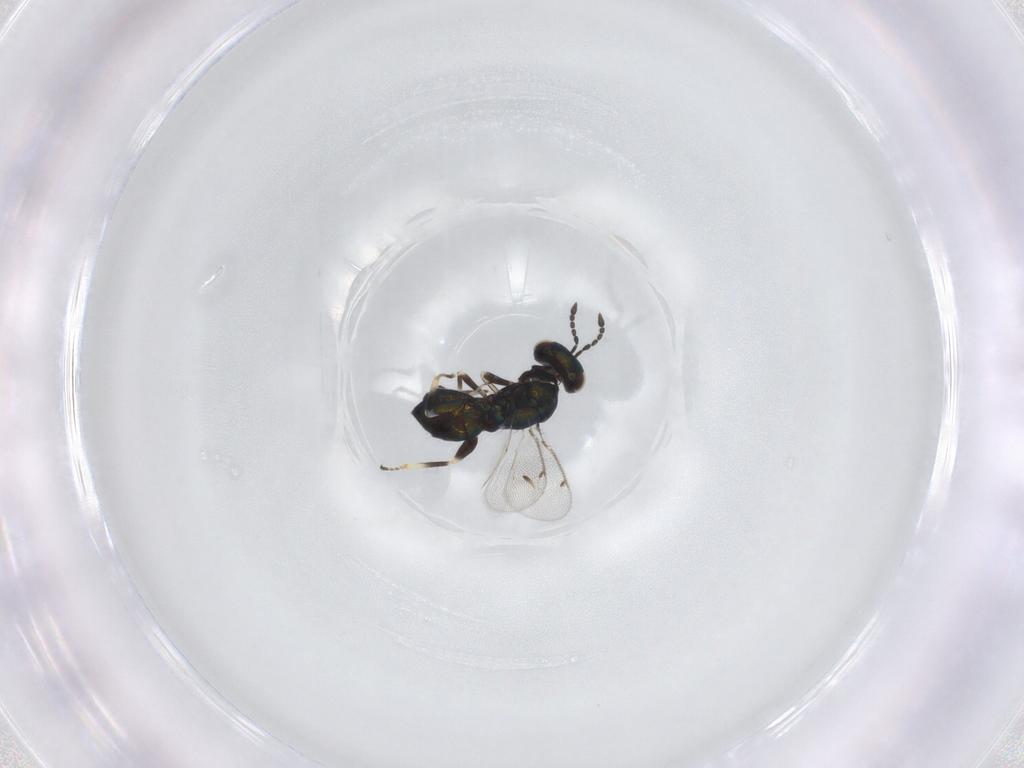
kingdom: Animalia
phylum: Arthropoda
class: Insecta
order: Hymenoptera
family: Eulophidae
